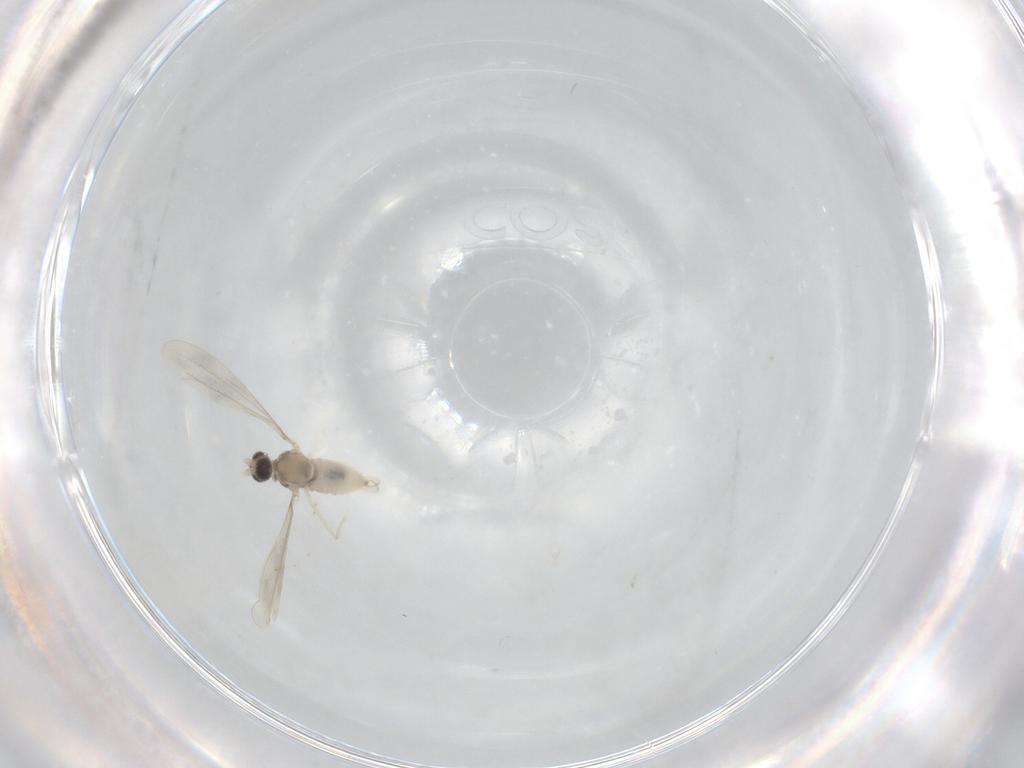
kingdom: Animalia
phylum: Arthropoda
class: Insecta
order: Diptera
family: Cecidomyiidae
